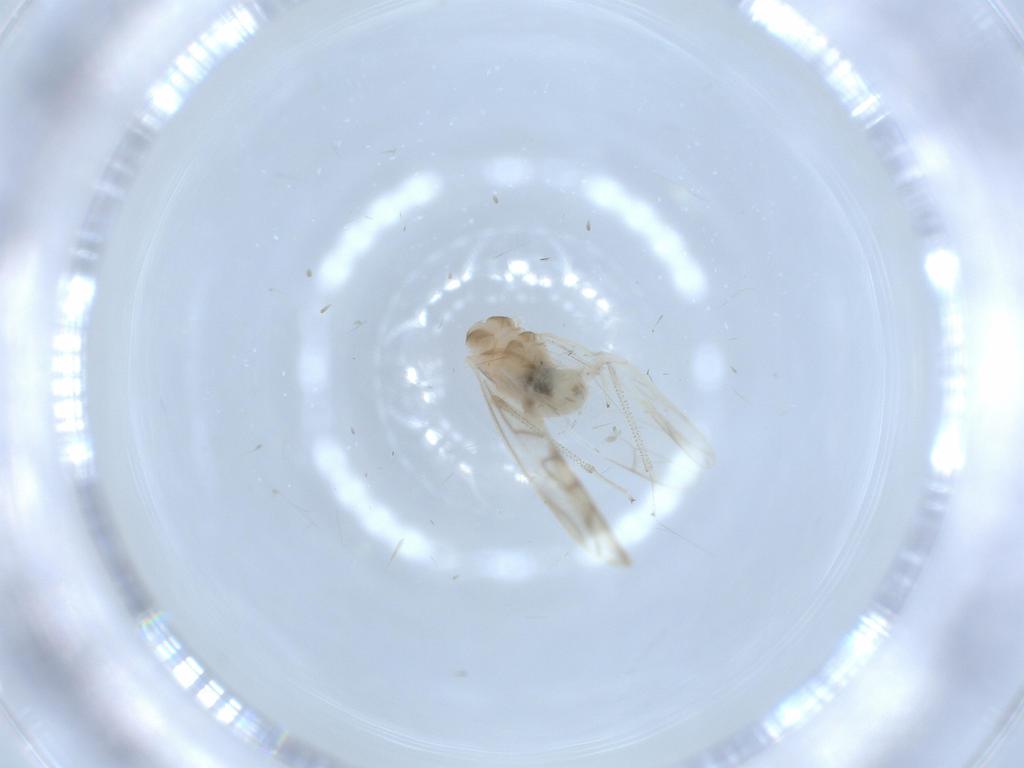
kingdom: Animalia
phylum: Arthropoda
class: Insecta
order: Psocodea
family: Caeciliusidae
